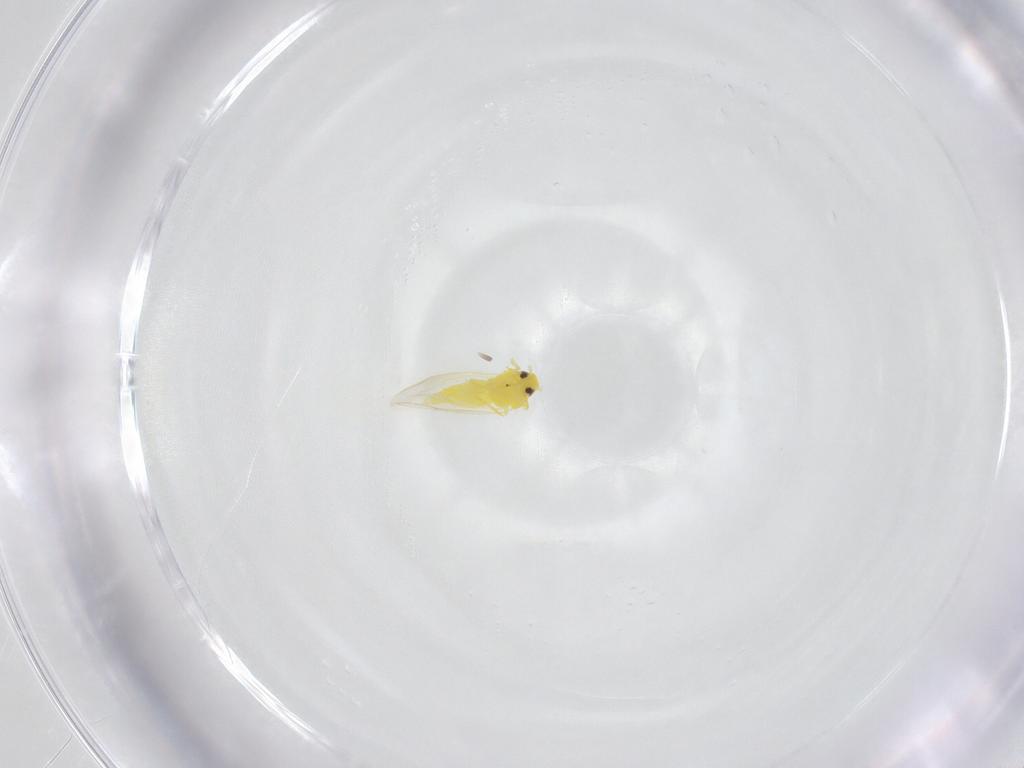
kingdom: Animalia
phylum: Arthropoda
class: Insecta
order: Hemiptera
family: Aleyrodidae
